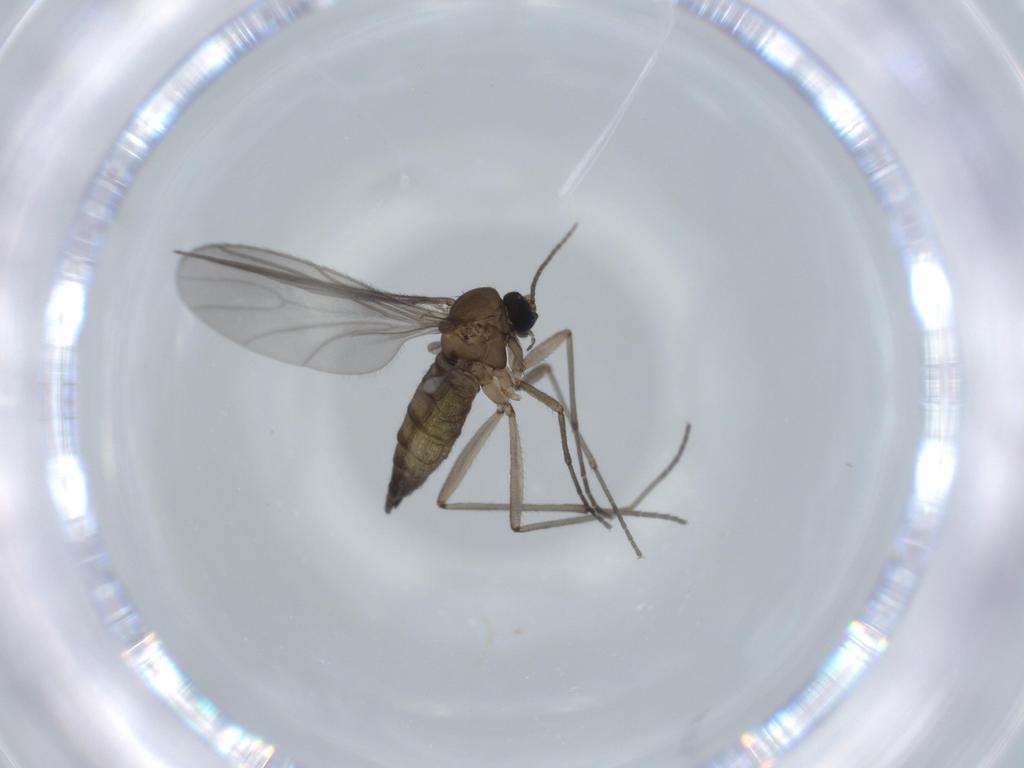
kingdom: Animalia
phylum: Arthropoda
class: Insecta
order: Diptera
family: Sciaridae
